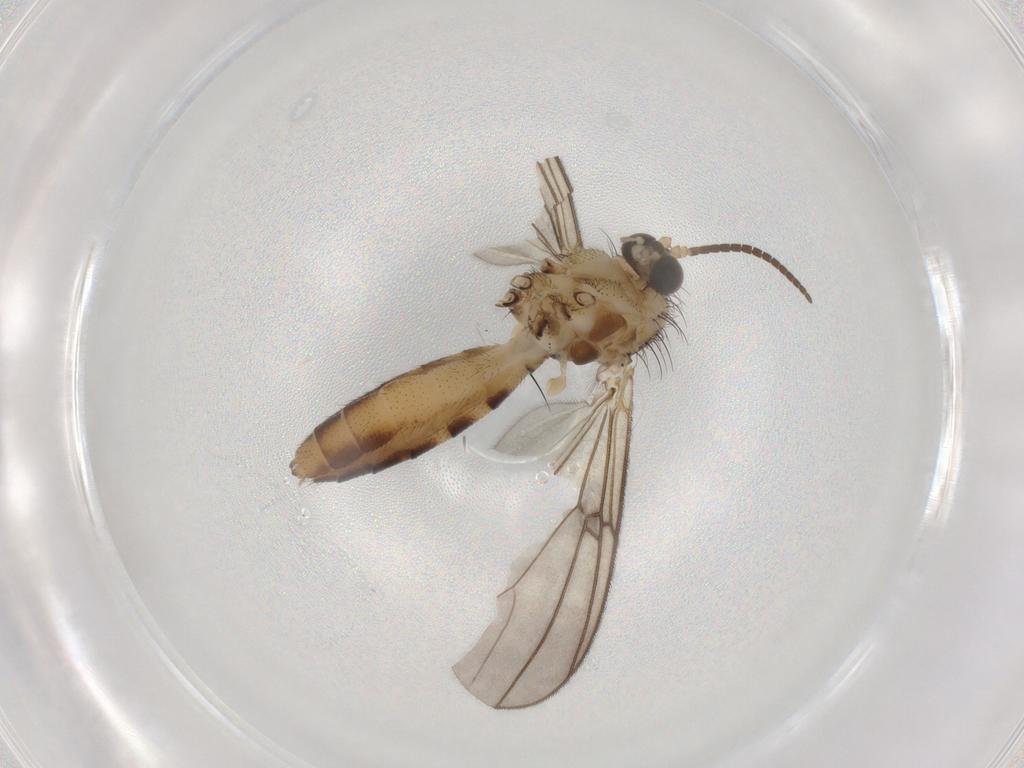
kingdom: Animalia
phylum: Arthropoda
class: Insecta
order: Diptera
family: Mycetophilidae
